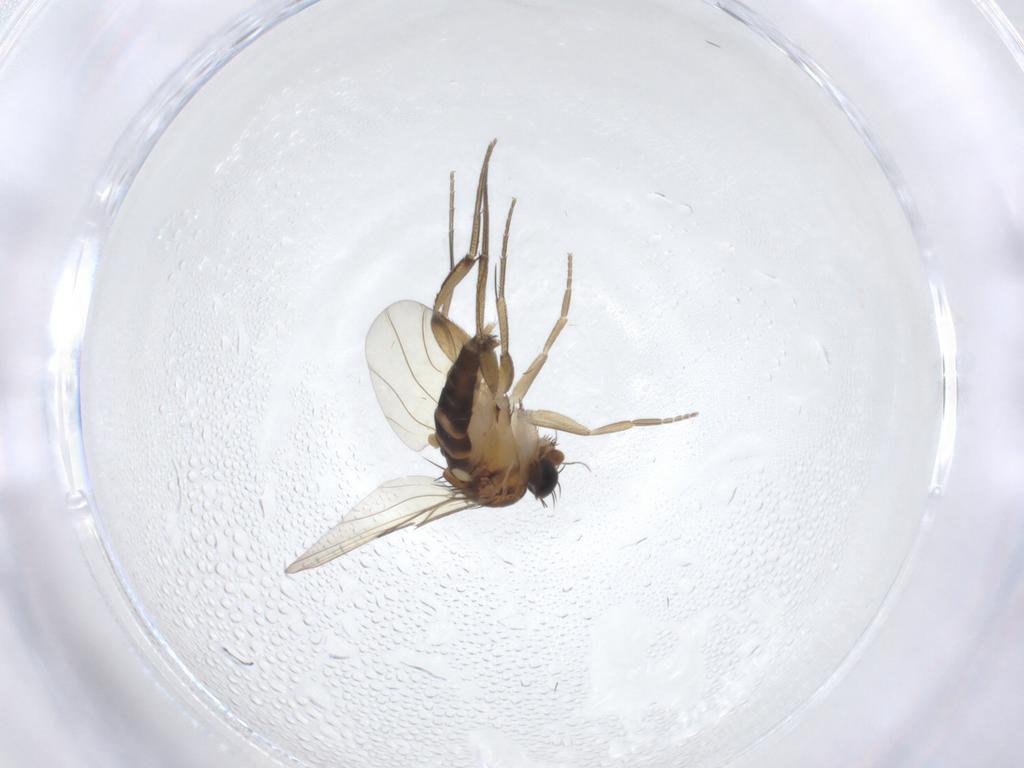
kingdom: Animalia
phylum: Arthropoda
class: Insecta
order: Diptera
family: Phoridae
